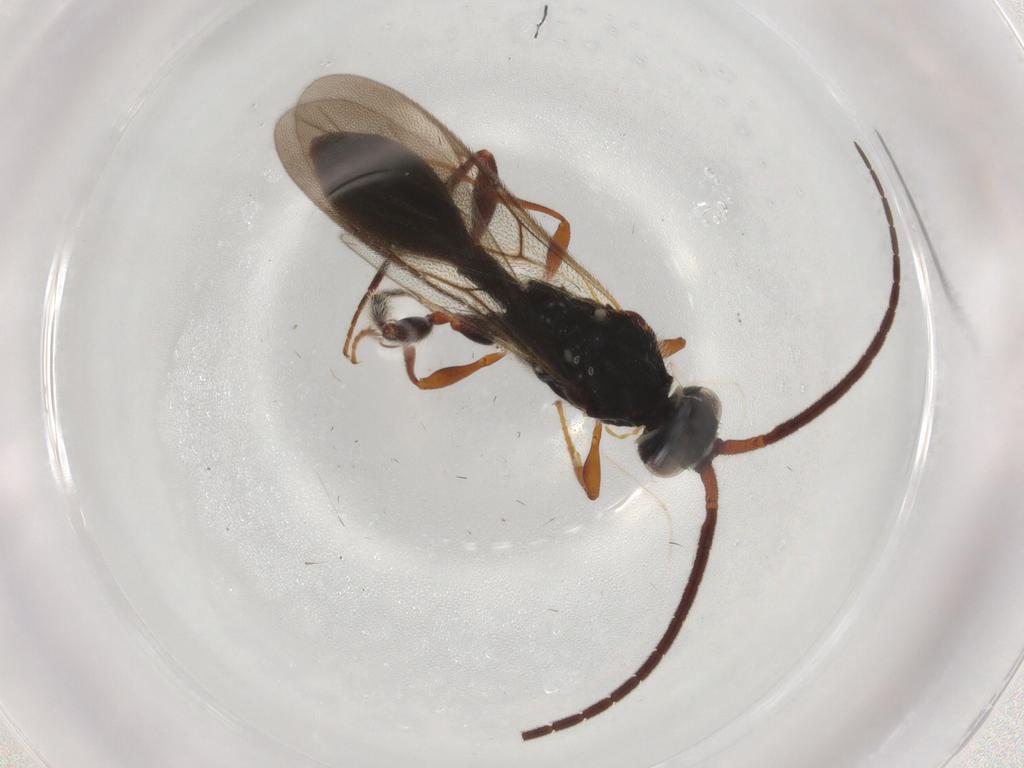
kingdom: Animalia
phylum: Arthropoda
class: Insecta
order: Hymenoptera
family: Diapriidae
